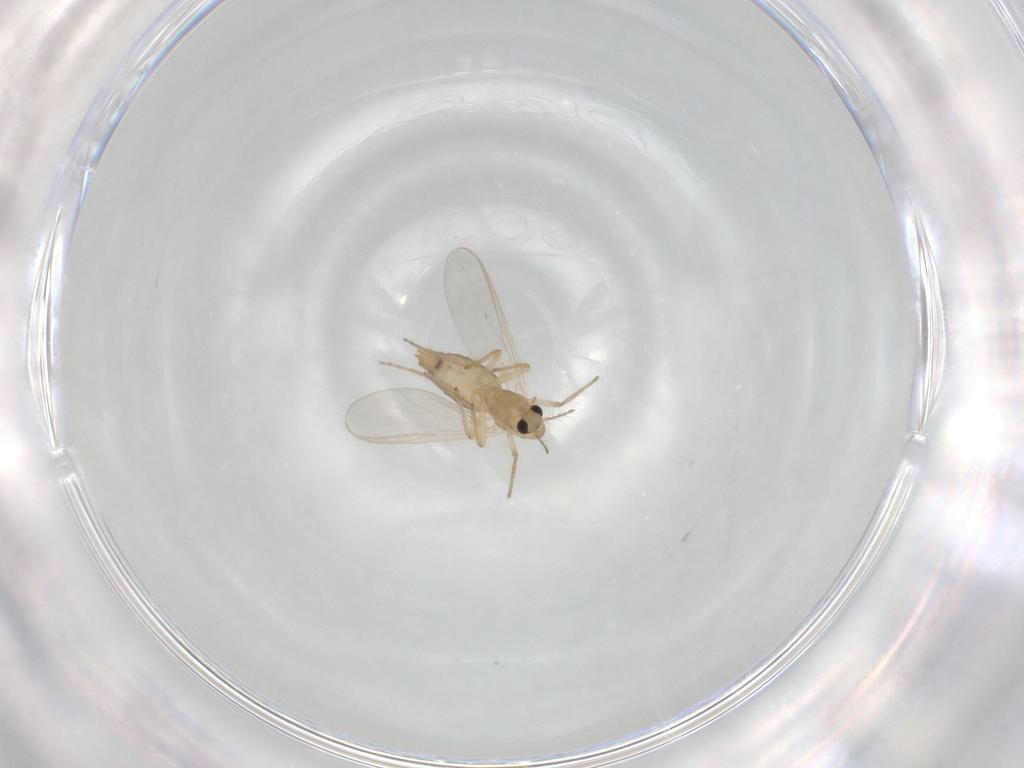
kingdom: Animalia
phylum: Arthropoda
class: Insecta
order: Diptera
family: Chironomidae
